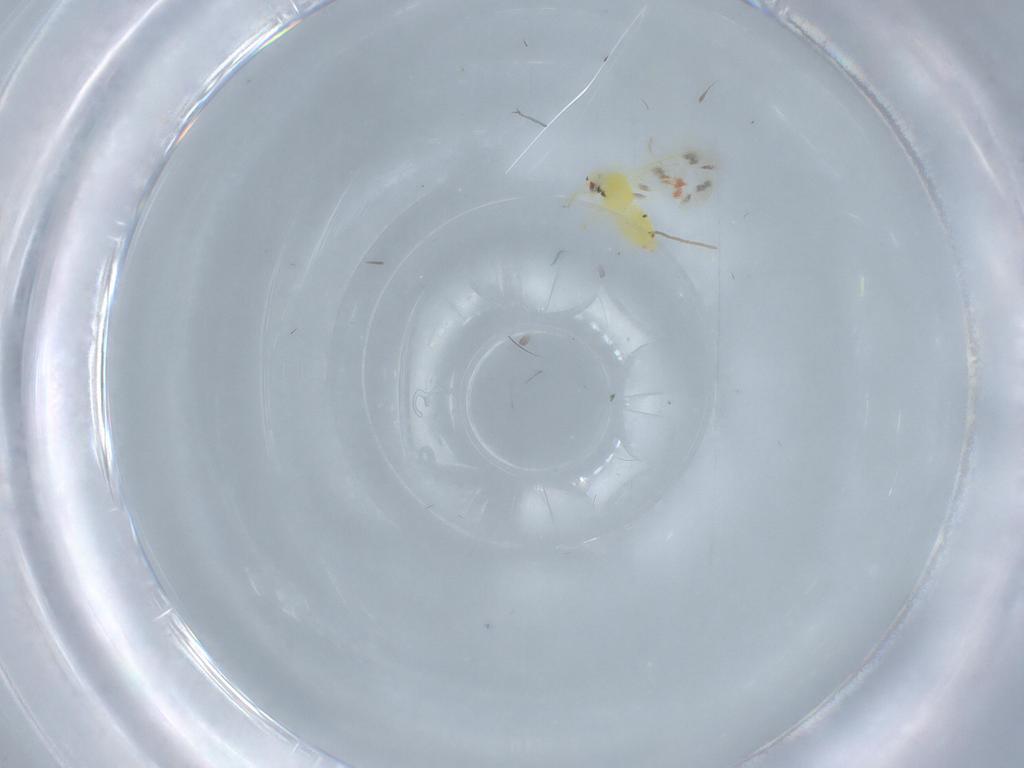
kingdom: Animalia
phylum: Arthropoda
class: Insecta
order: Hemiptera
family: Aleyrodidae
